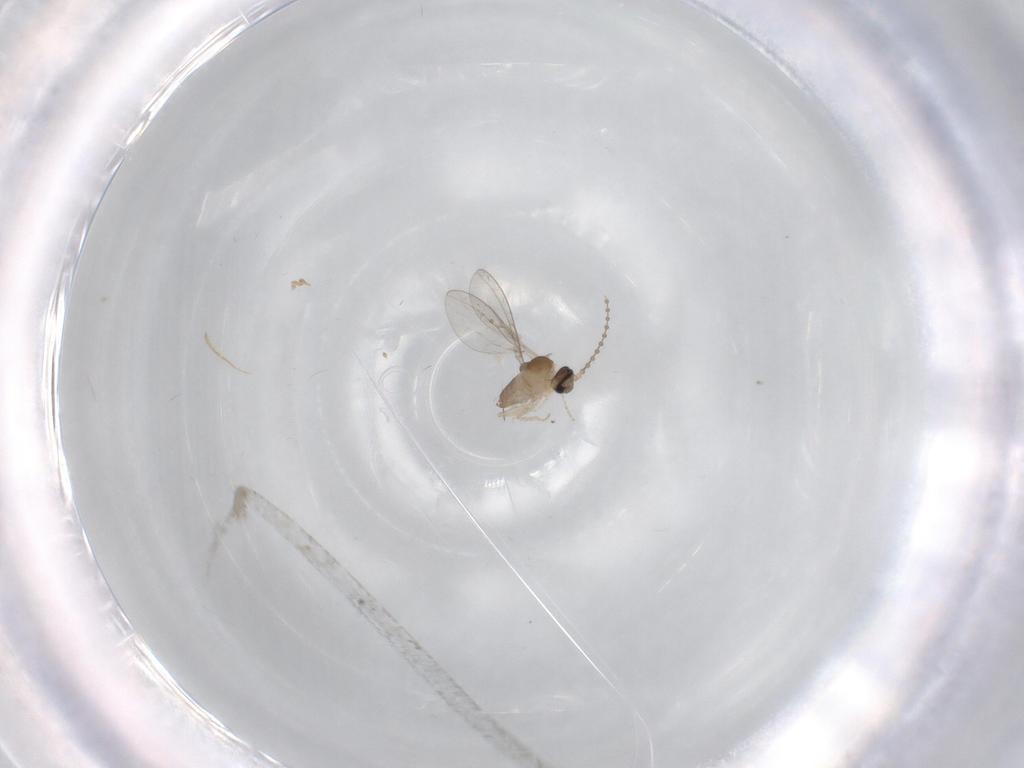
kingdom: Animalia
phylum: Arthropoda
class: Insecta
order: Diptera
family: Cecidomyiidae
